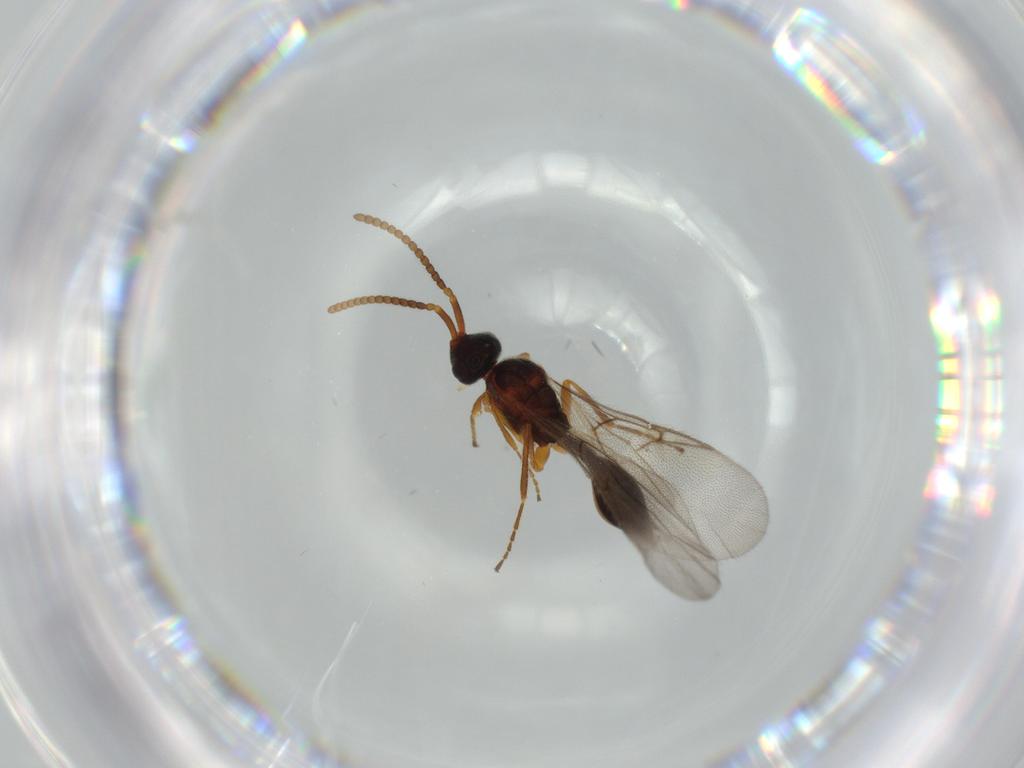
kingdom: Animalia
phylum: Arthropoda
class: Insecta
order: Hymenoptera
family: Diapriidae
